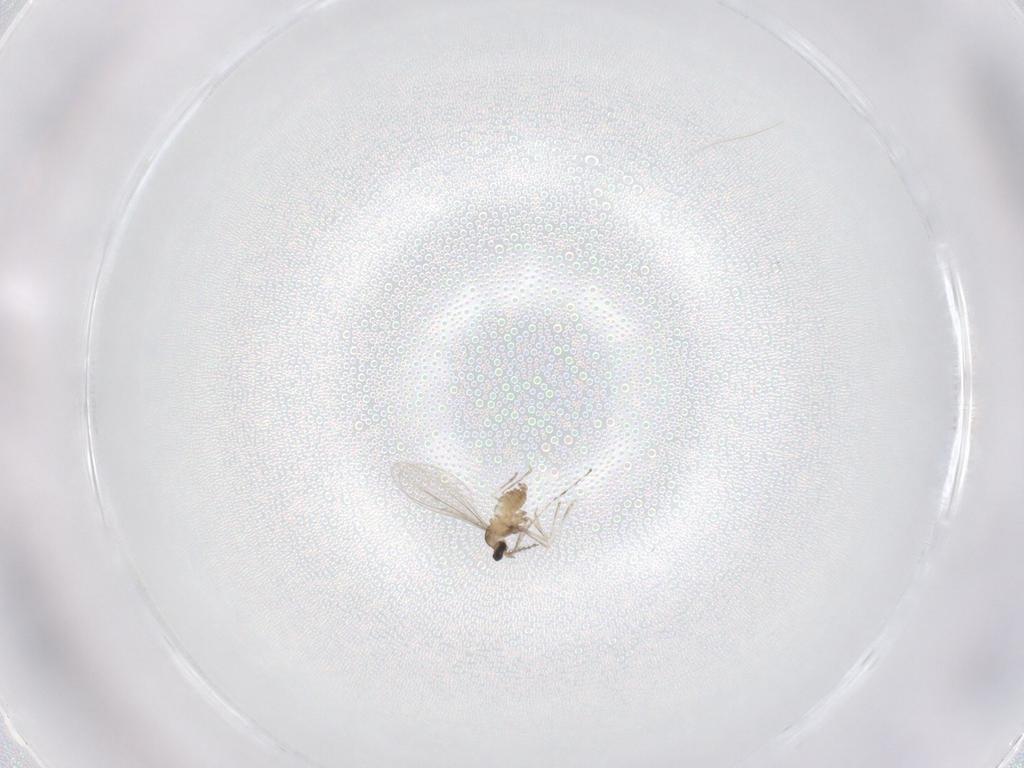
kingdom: Animalia
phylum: Arthropoda
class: Insecta
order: Diptera
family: Cecidomyiidae
